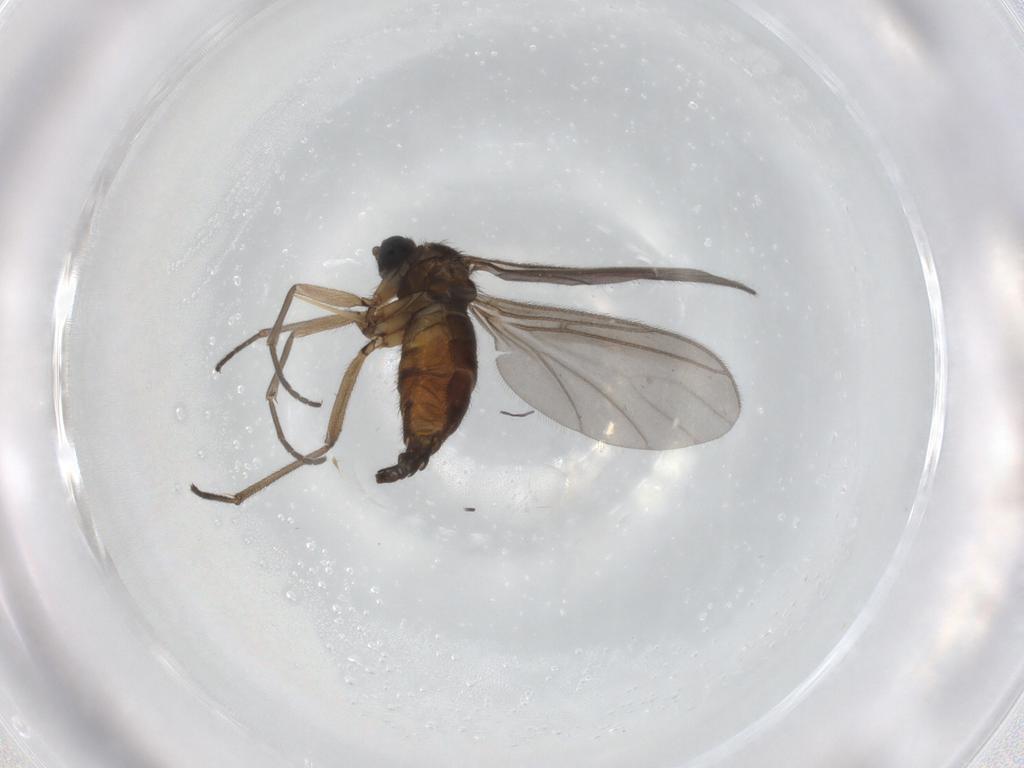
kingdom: Animalia
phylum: Arthropoda
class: Insecta
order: Diptera
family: Sciaridae
